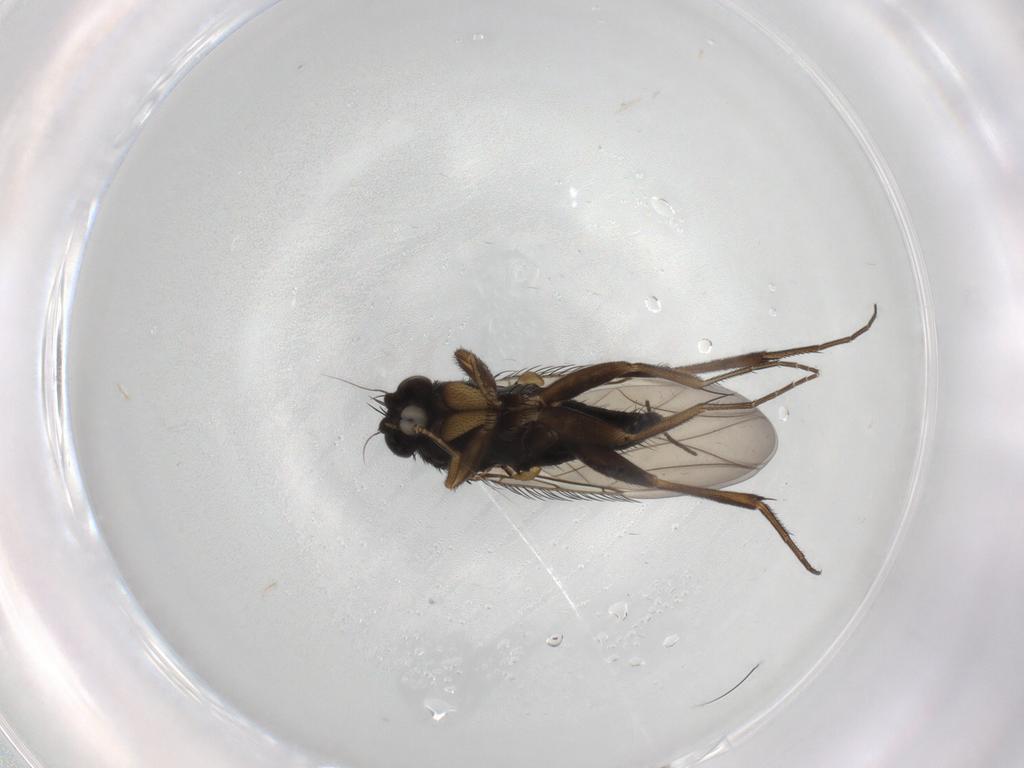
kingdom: Animalia
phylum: Arthropoda
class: Insecta
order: Diptera
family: Phoridae
